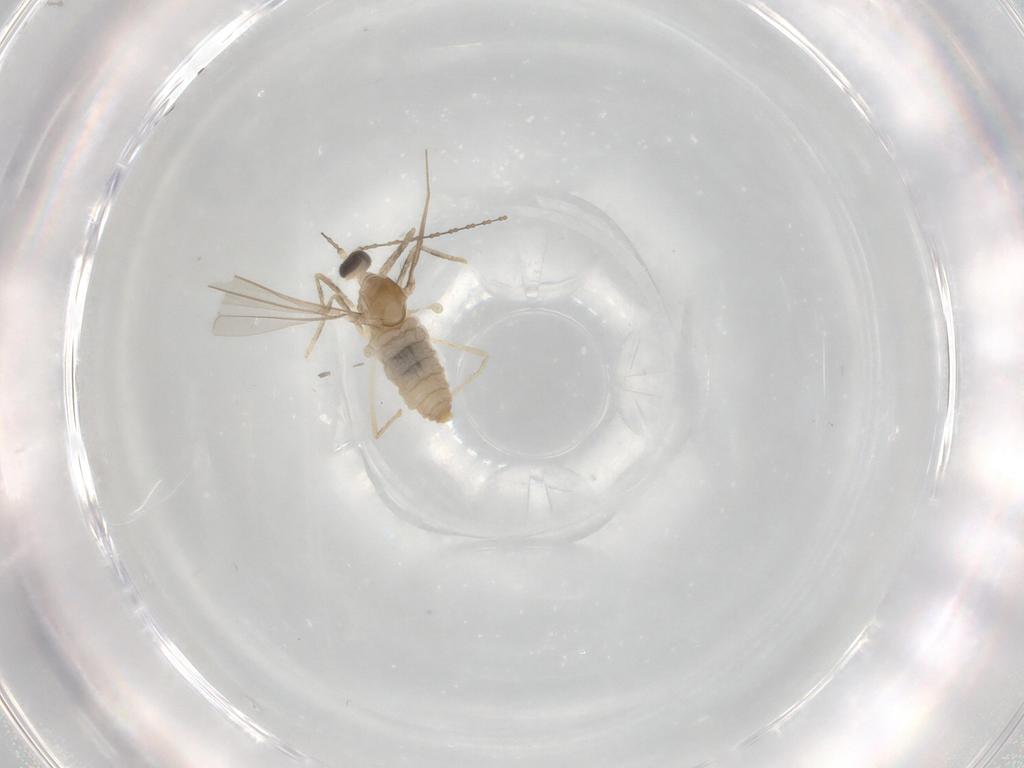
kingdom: Animalia
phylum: Arthropoda
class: Insecta
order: Diptera
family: Cecidomyiidae
